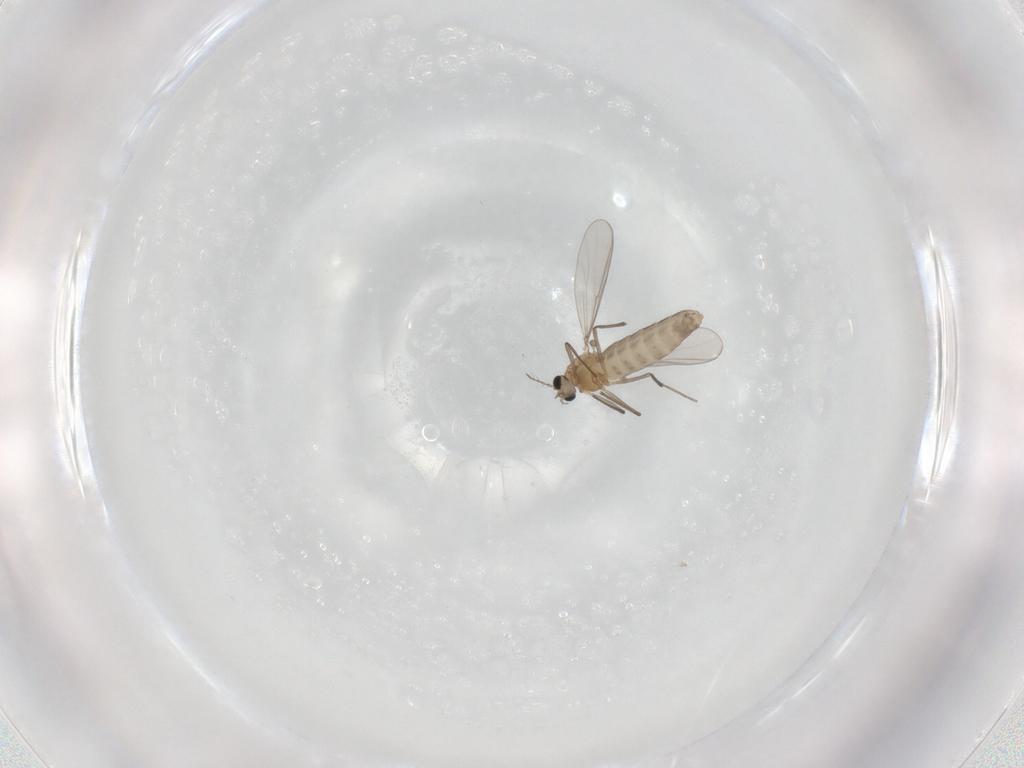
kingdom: Animalia
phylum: Arthropoda
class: Insecta
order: Diptera
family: Chironomidae
